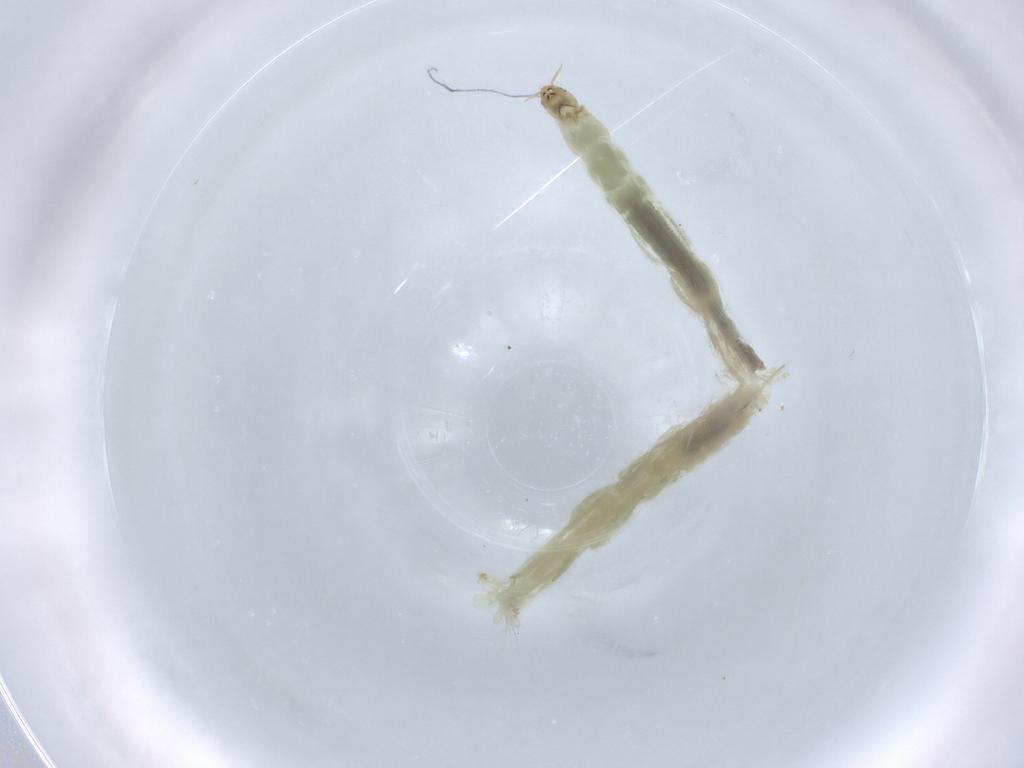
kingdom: Animalia
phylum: Arthropoda
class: Insecta
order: Diptera
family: Chironomidae
